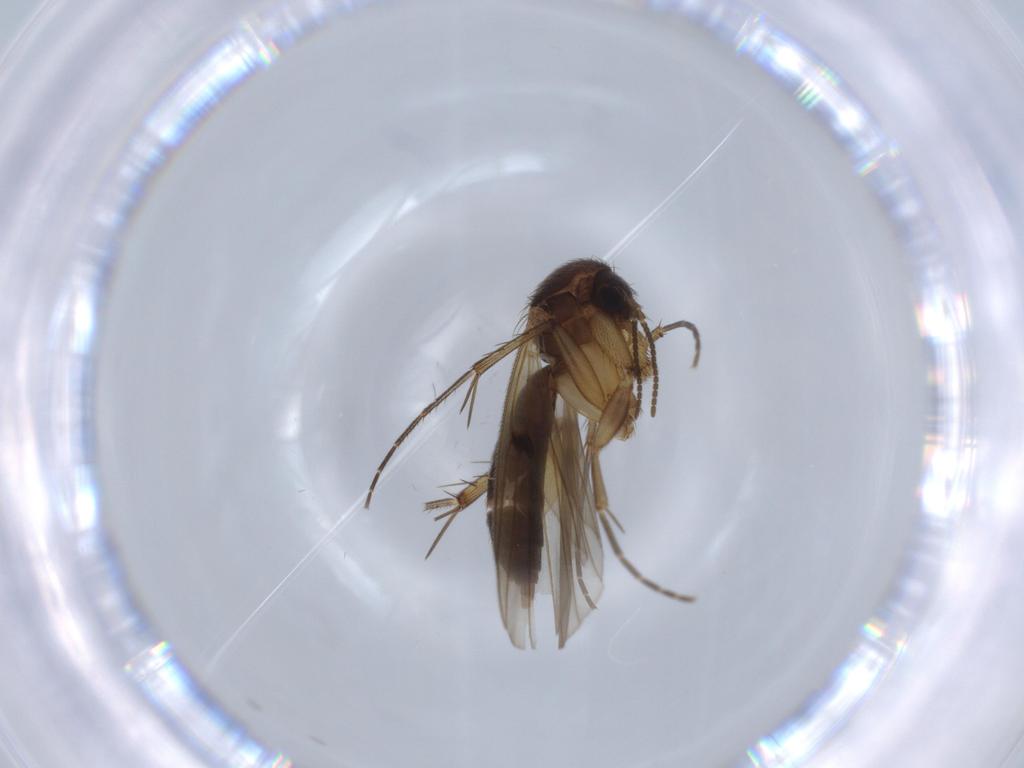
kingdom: Animalia
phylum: Arthropoda
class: Insecta
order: Diptera
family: Mycetophilidae
